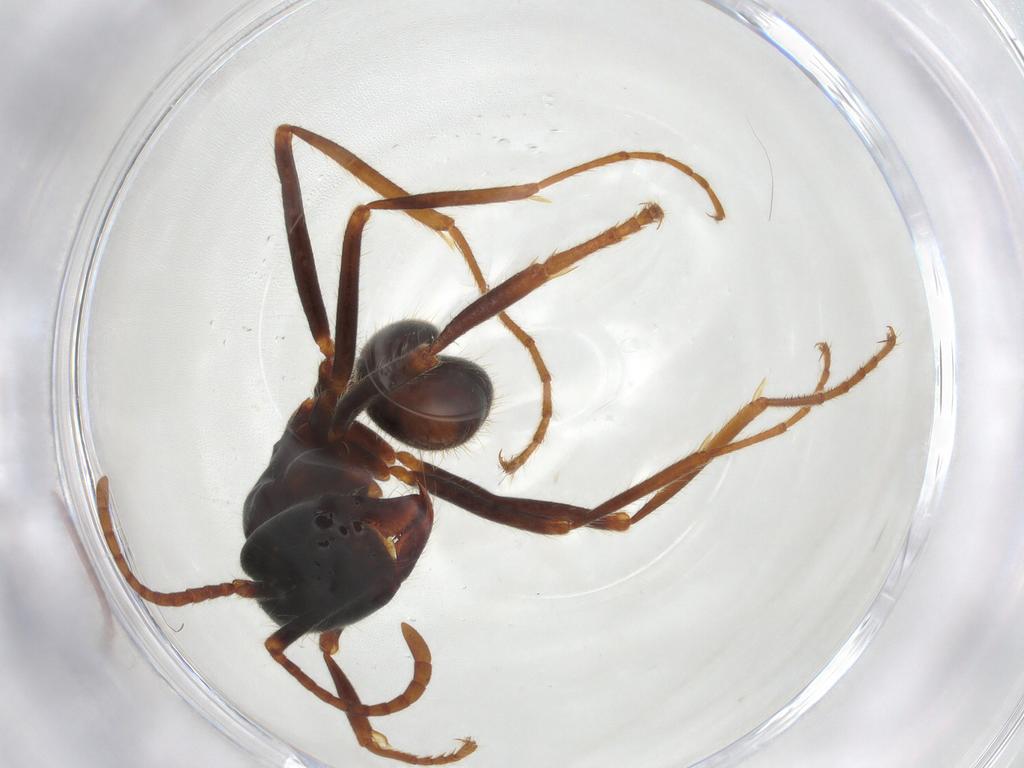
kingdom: Animalia
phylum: Arthropoda
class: Insecta
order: Hymenoptera
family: Formicidae
